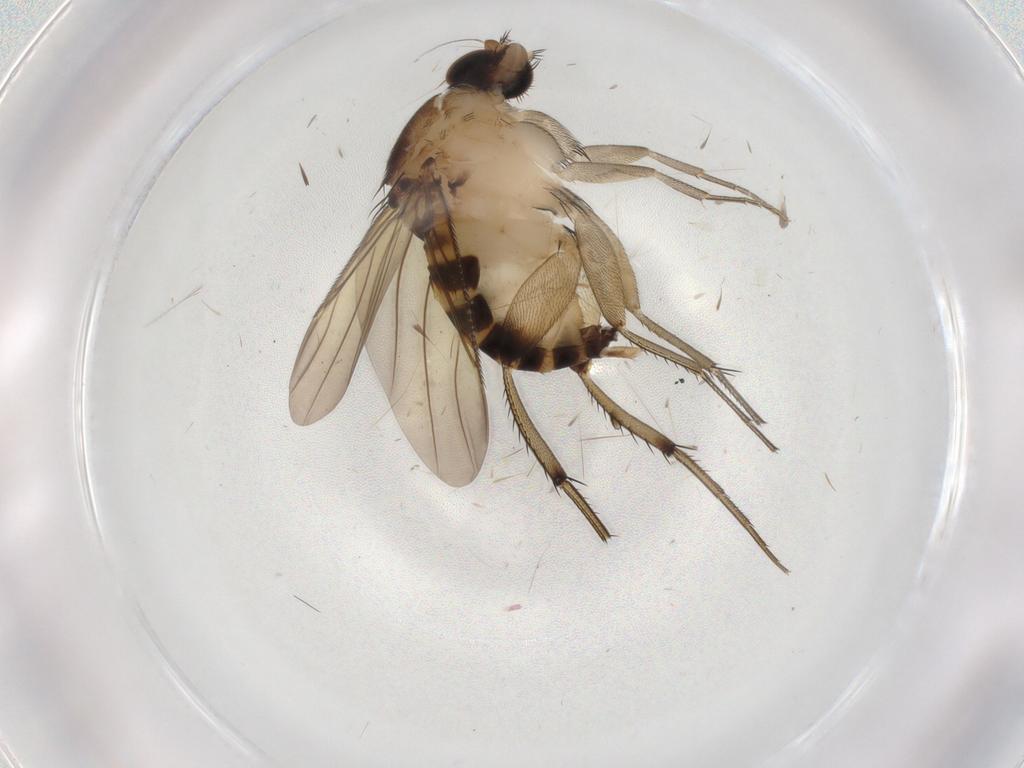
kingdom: Animalia
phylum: Arthropoda
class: Insecta
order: Diptera
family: Phoridae
